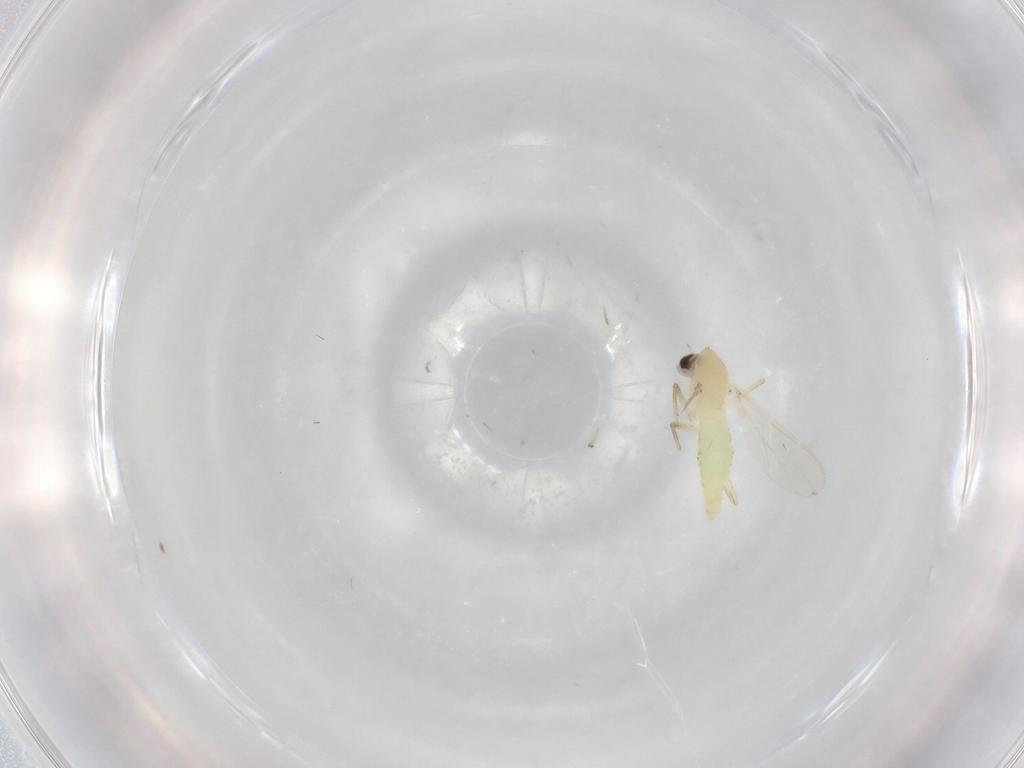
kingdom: Animalia
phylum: Arthropoda
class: Insecta
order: Diptera
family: Chironomidae
